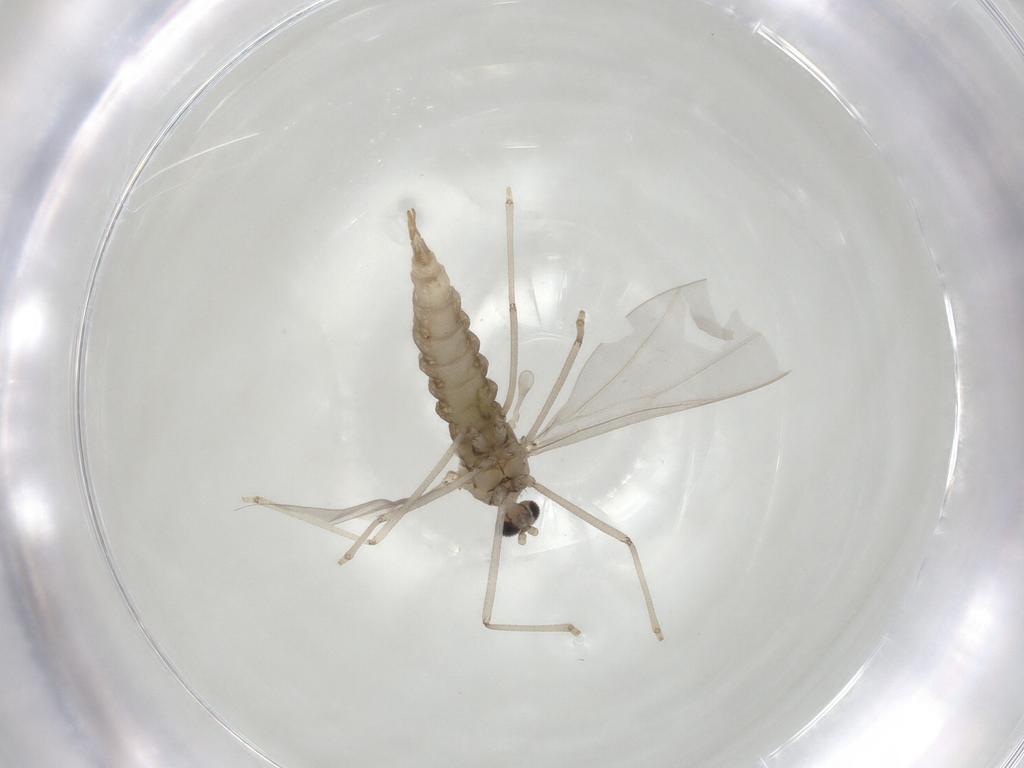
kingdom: Animalia
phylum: Arthropoda
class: Insecta
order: Diptera
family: Cecidomyiidae
